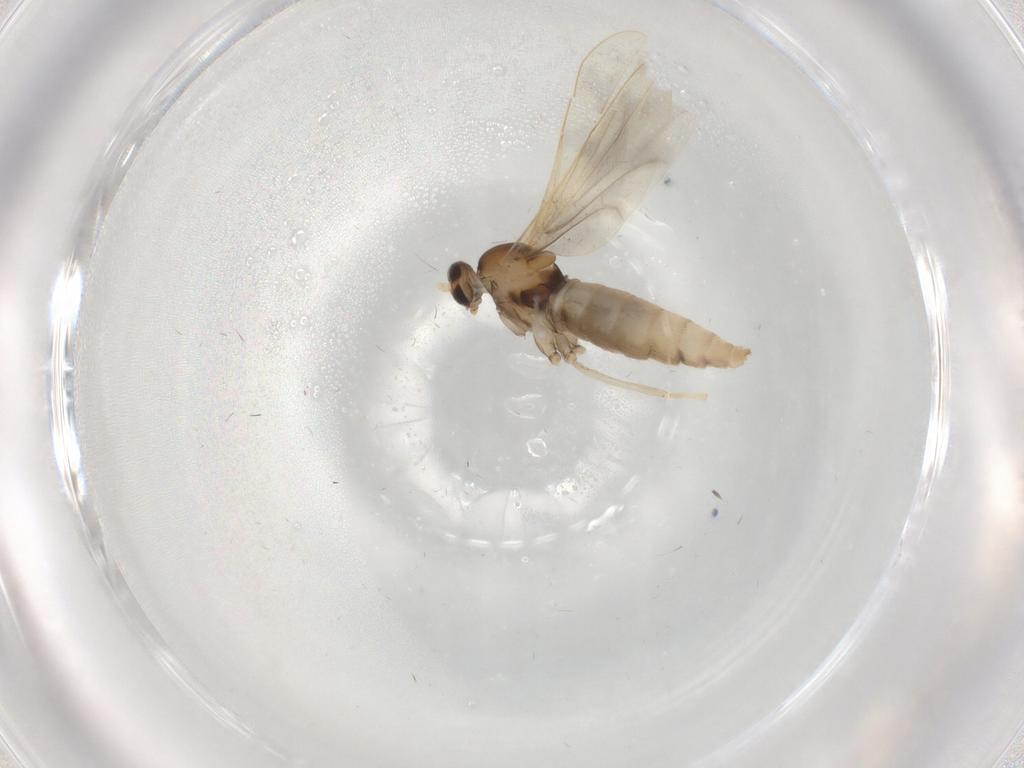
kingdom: Animalia
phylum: Arthropoda
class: Insecta
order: Diptera
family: Cecidomyiidae
